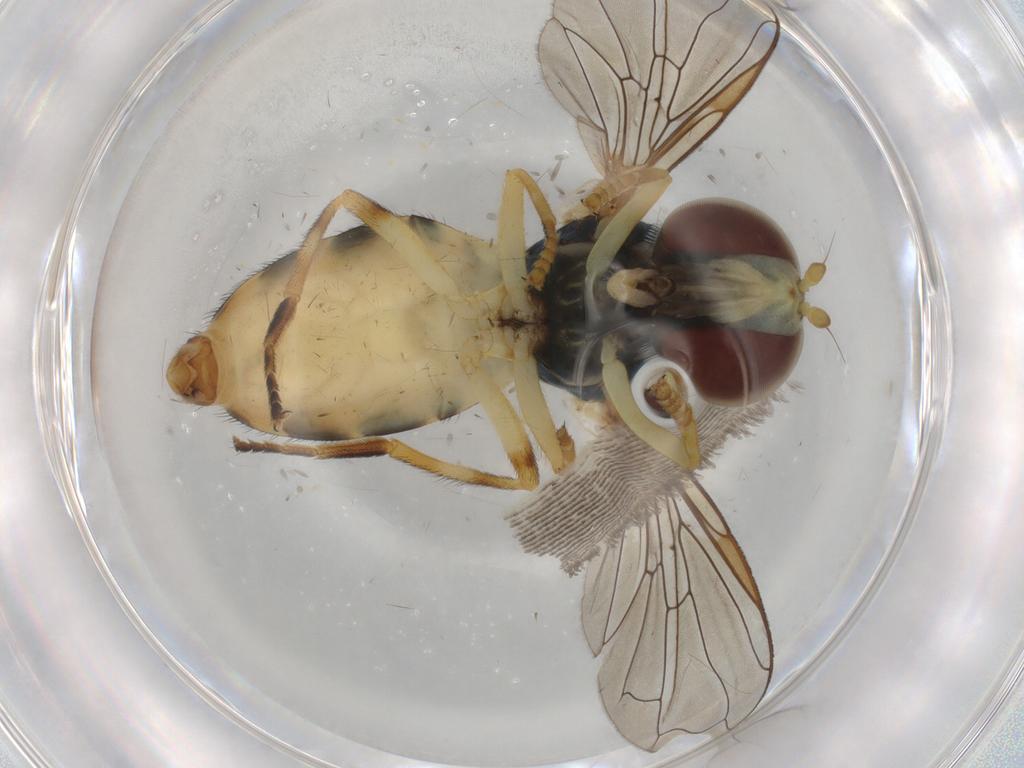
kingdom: Animalia
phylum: Arthropoda
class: Insecta
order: Diptera
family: Syrphidae
